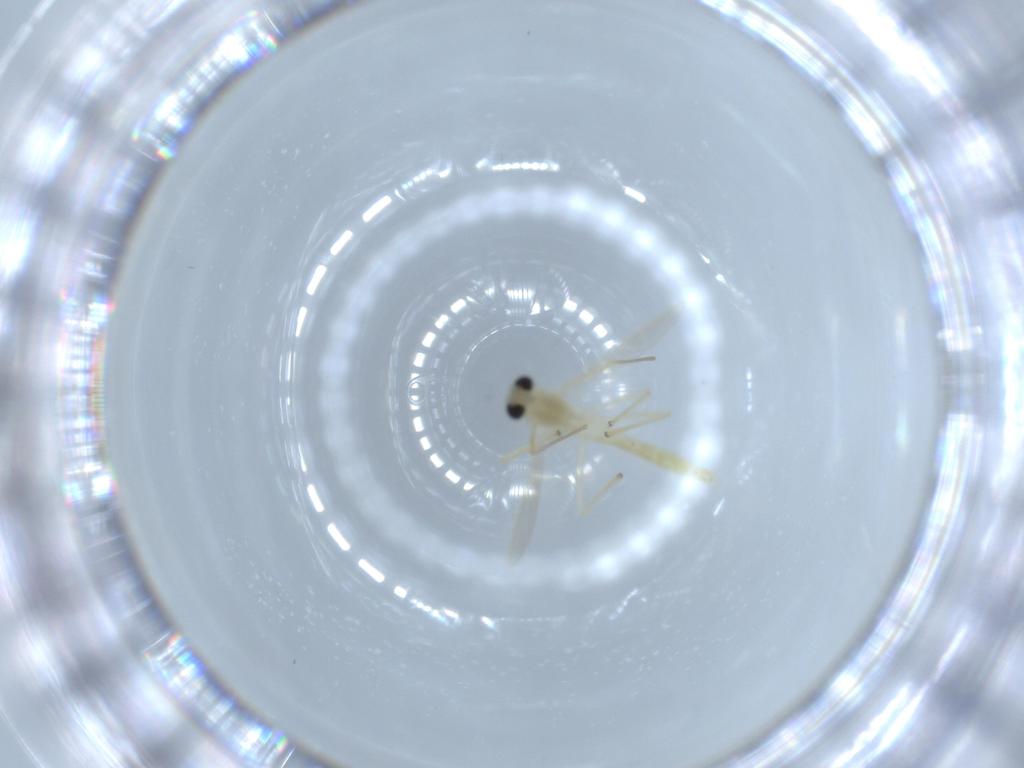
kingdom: Animalia
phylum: Arthropoda
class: Insecta
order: Diptera
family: Chironomidae
